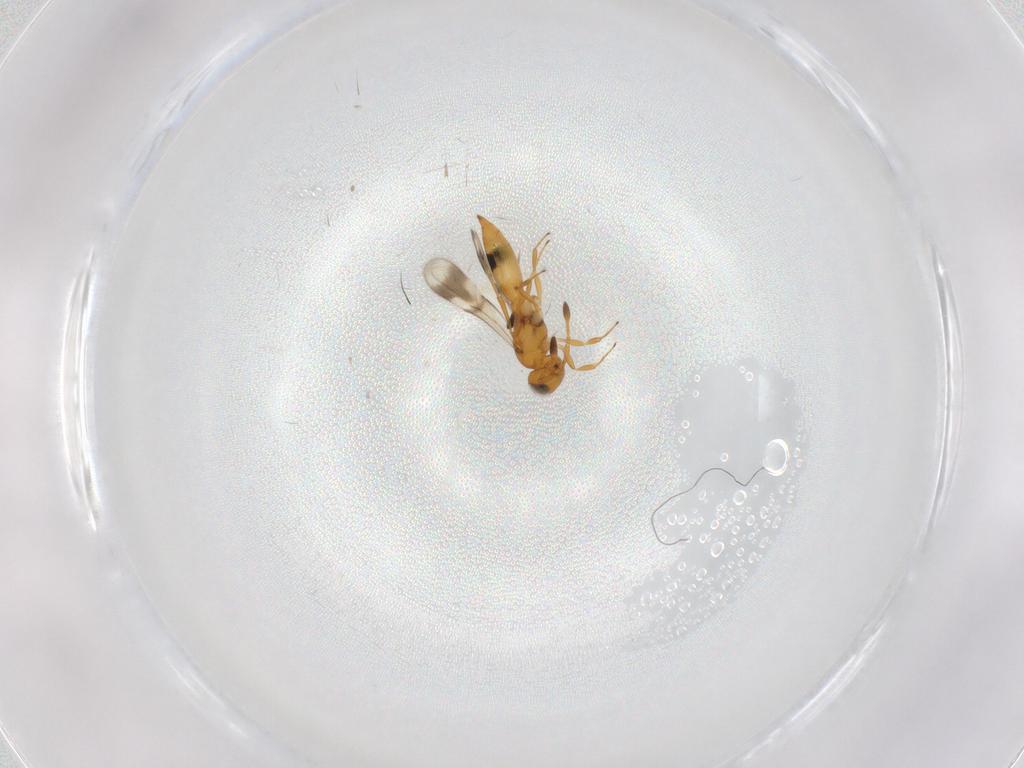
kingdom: Animalia
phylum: Arthropoda
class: Insecta
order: Hymenoptera
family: Scelionidae
